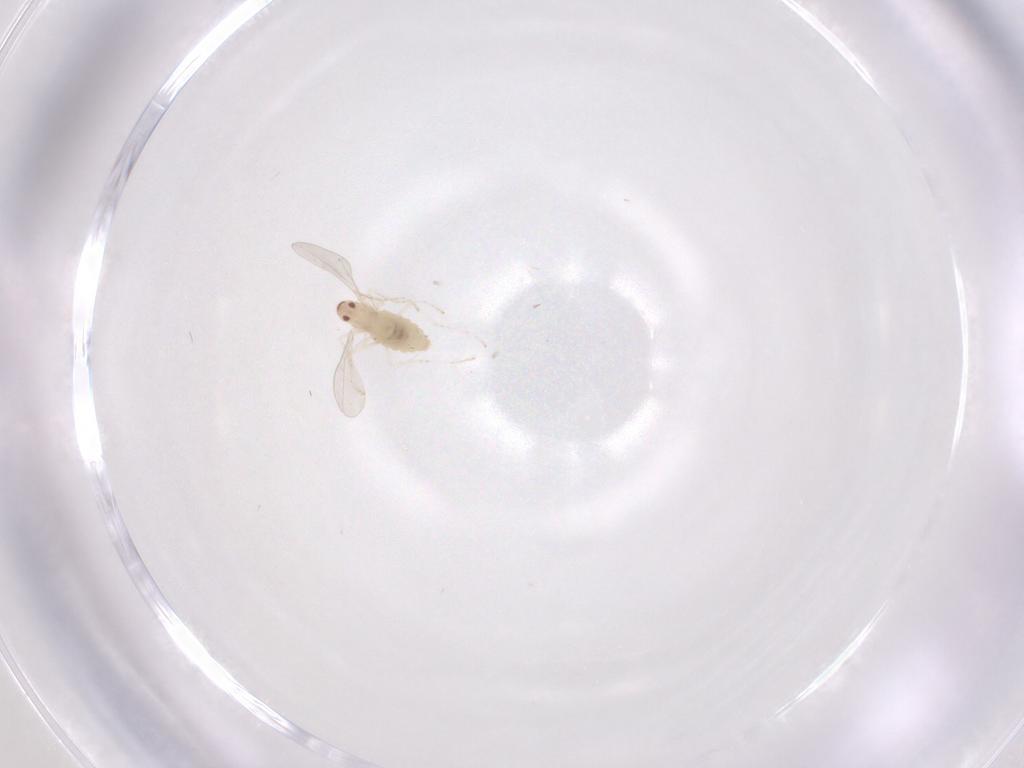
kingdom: Animalia
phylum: Arthropoda
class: Insecta
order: Diptera
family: Cecidomyiidae
